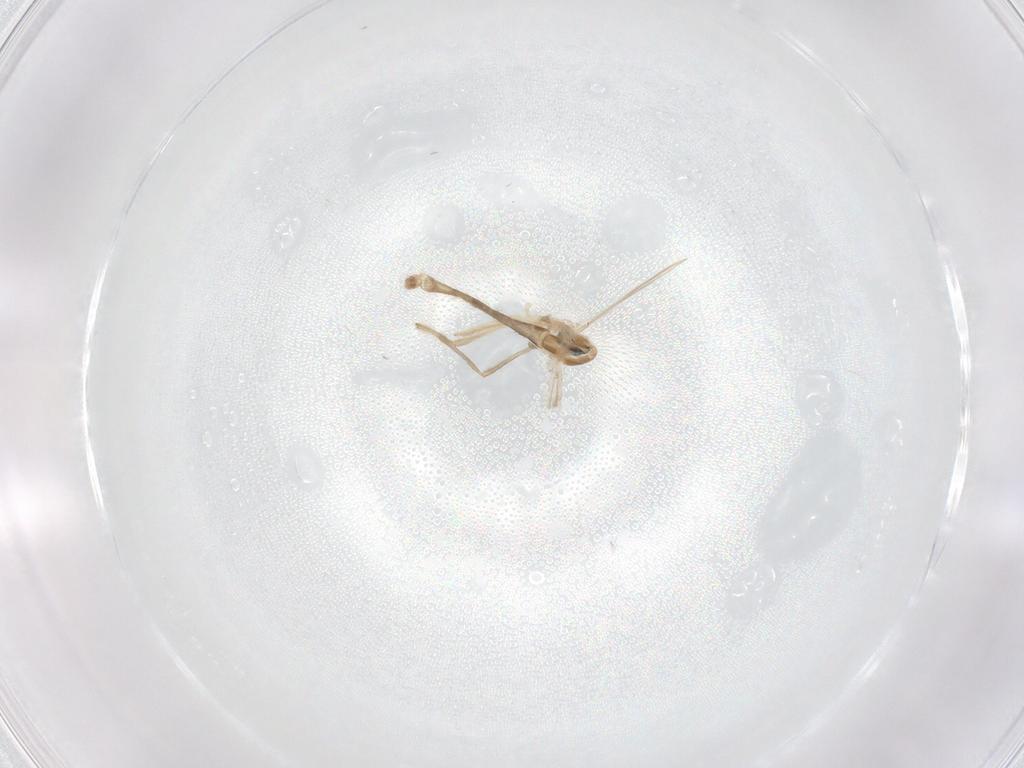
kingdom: Animalia
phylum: Arthropoda
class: Insecta
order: Diptera
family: Chironomidae
